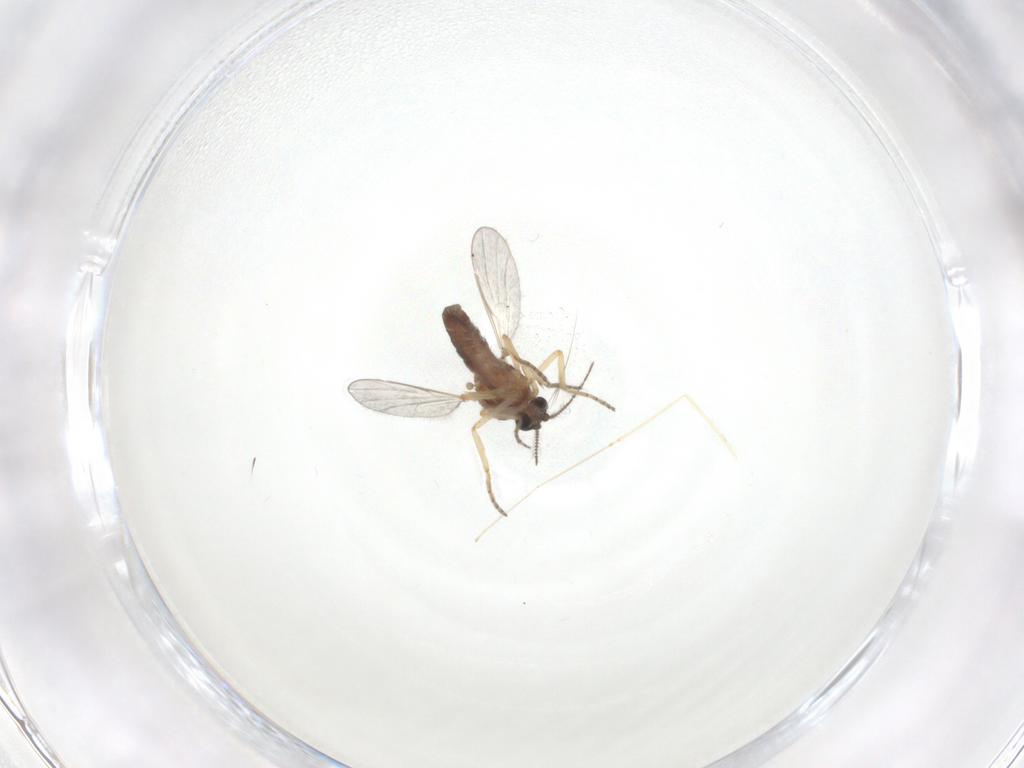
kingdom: Animalia
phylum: Arthropoda
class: Insecta
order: Diptera
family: Ceratopogonidae
